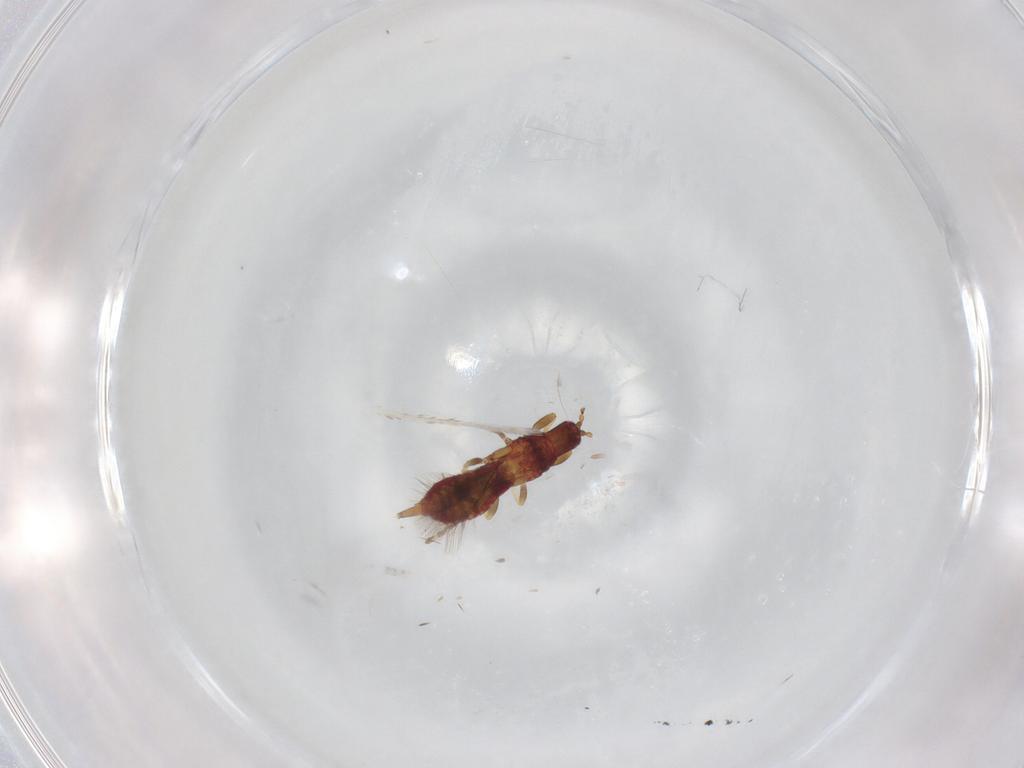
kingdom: Animalia
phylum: Arthropoda
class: Insecta
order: Thysanoptera
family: Phlaeothripidae
